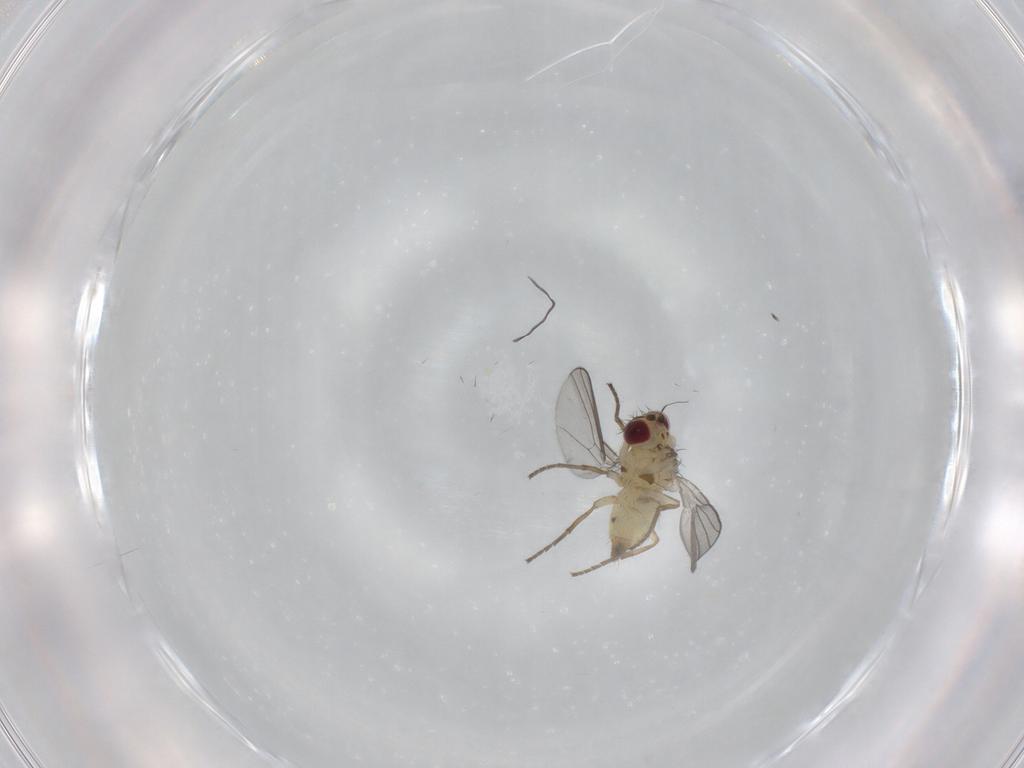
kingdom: Animalia
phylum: Arthropoda
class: Insecta
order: Diptera
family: Agromyzidae
